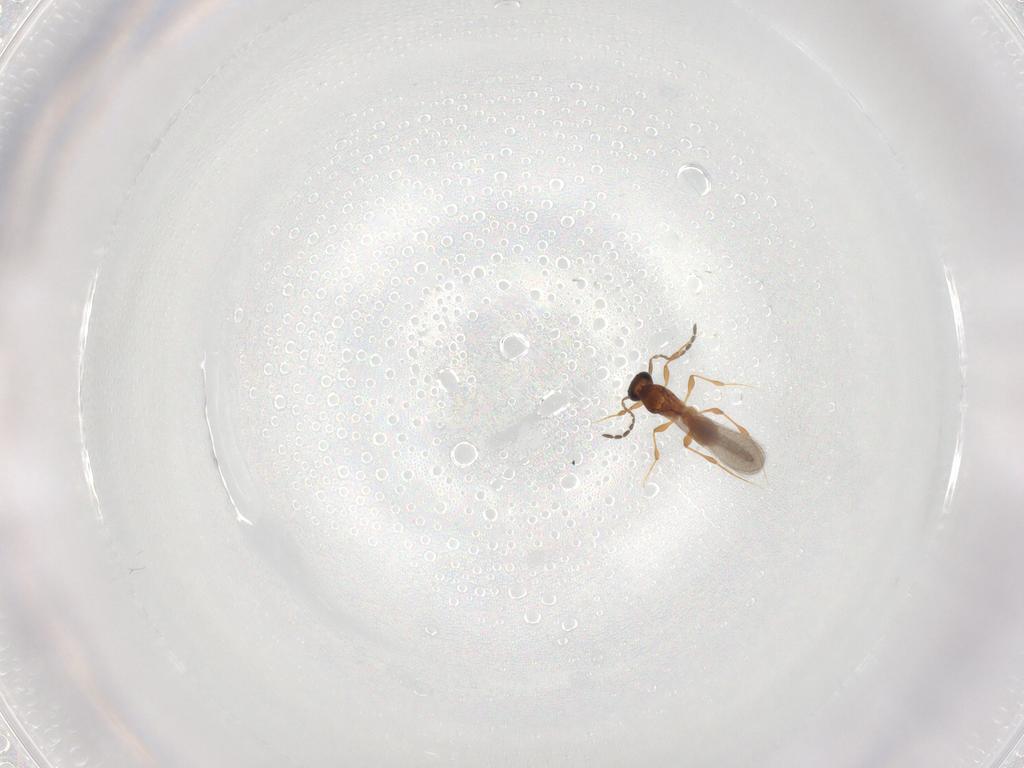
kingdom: Animalia
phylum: Arthropoda
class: Insecta
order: Hymenoptera
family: Platygastridae
